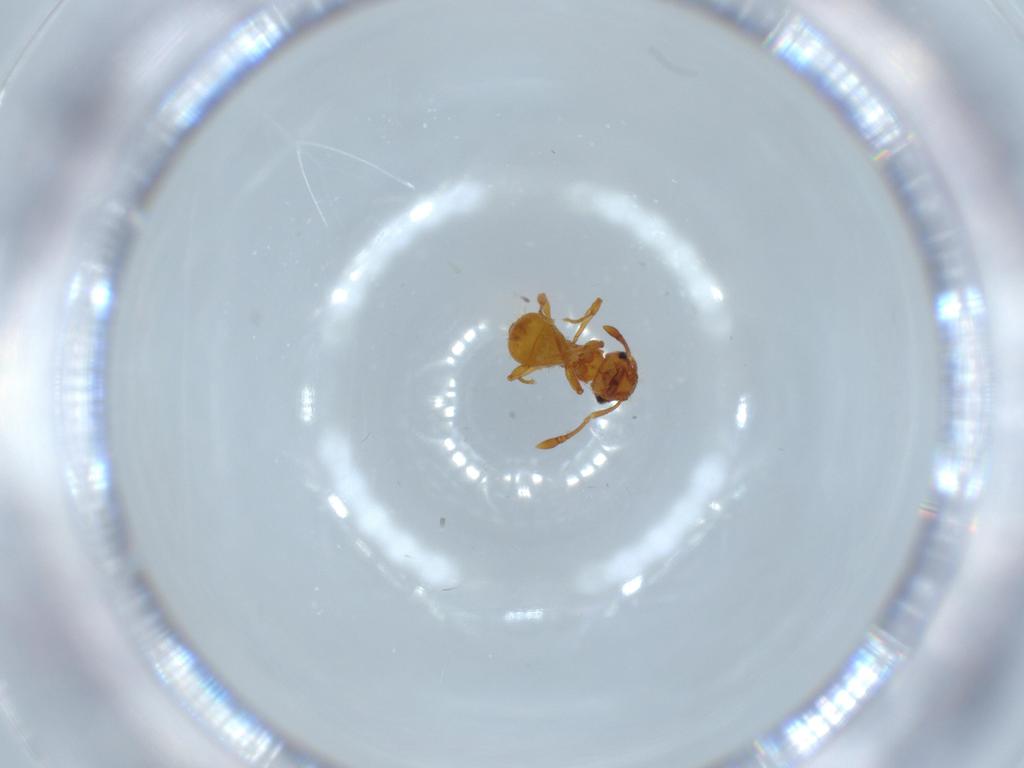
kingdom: Animalia
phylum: Arthropoda
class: Insecta
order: Hymenoptera
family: Formicidae
